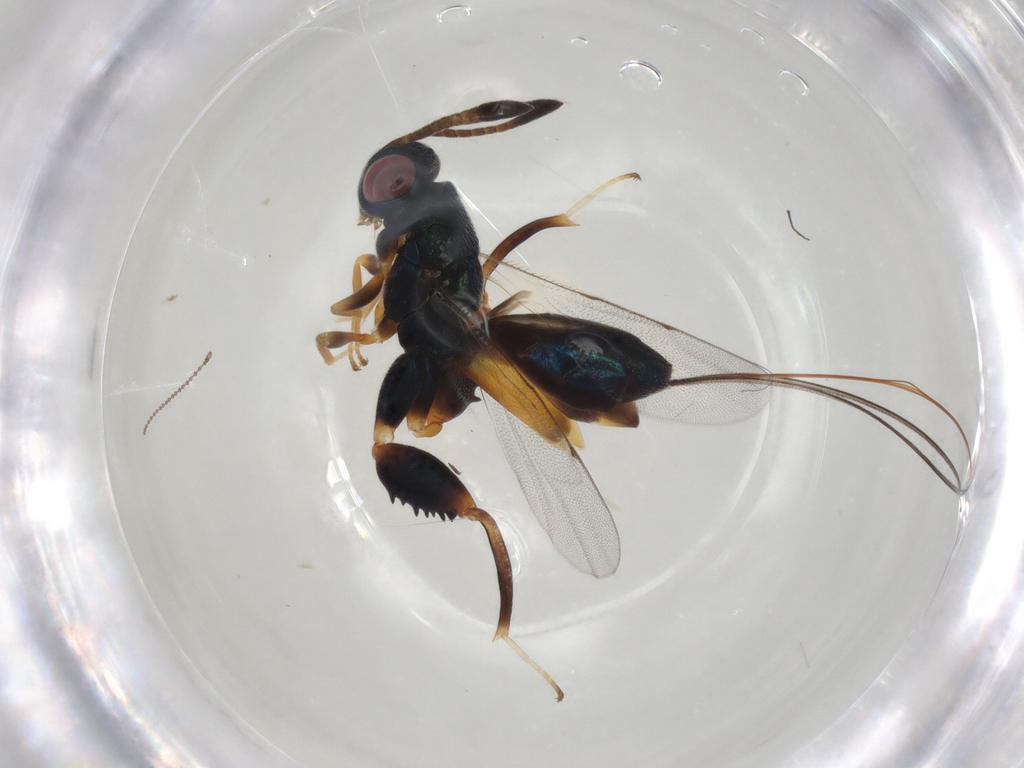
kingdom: Animalia
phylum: Arthropoda
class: Insecta
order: Hymenoptera
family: Torymidae
